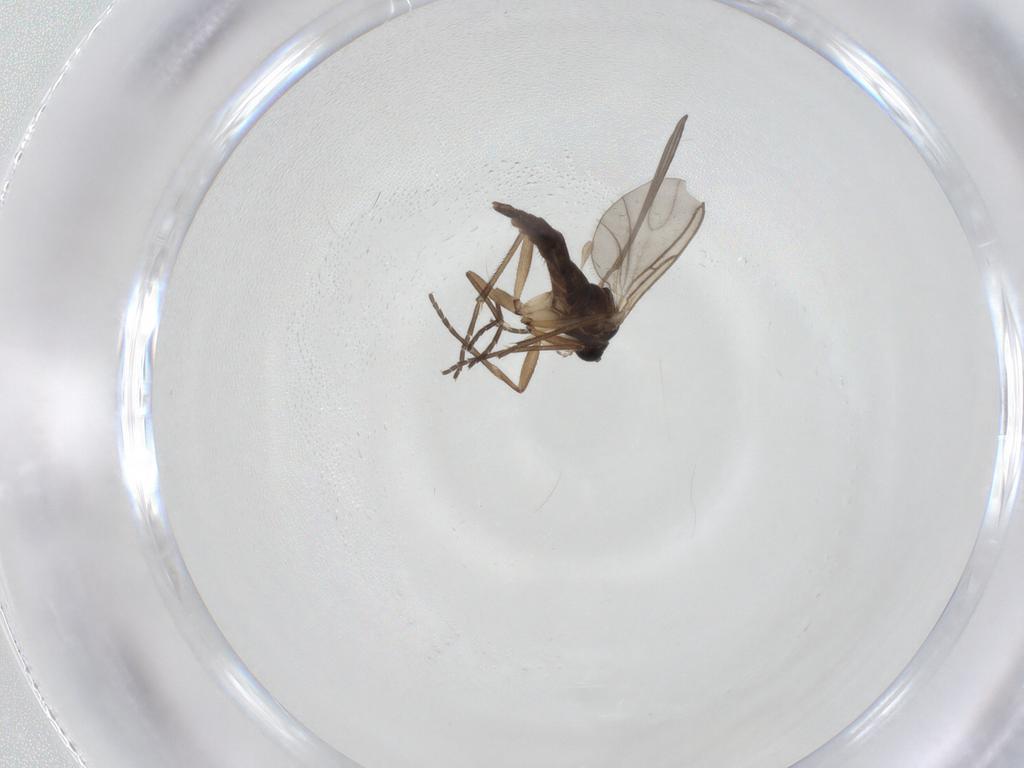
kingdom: Animalia
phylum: Arthropoda
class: Insecta
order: Diptera
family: Sciaridae
